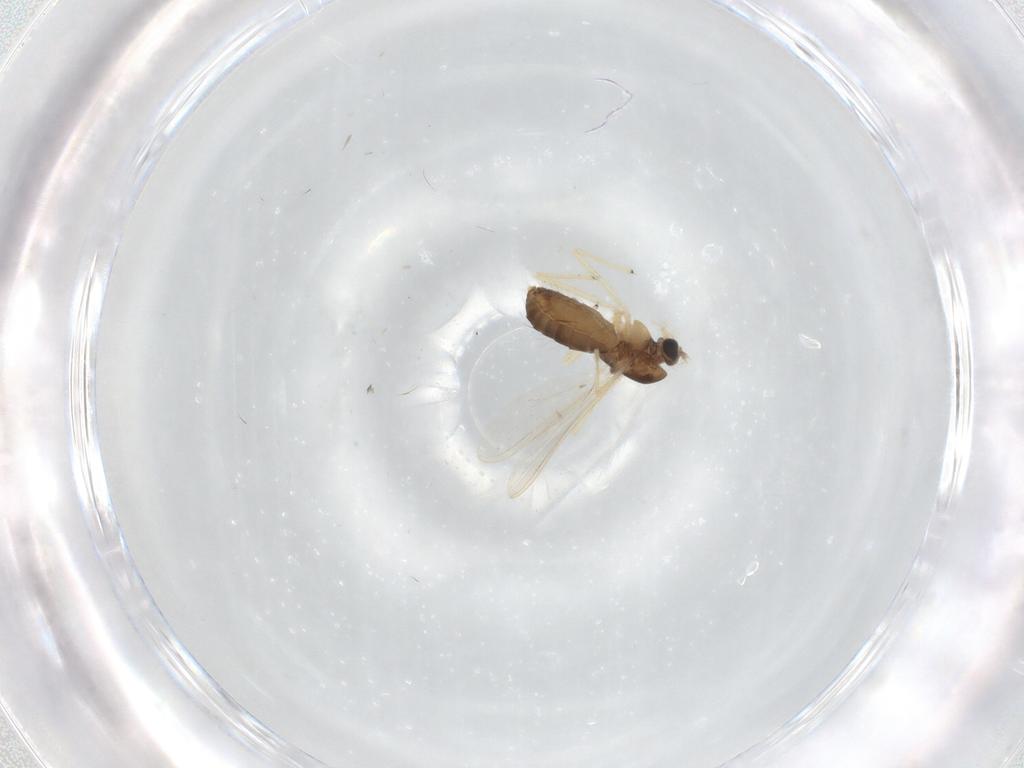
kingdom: Animalia
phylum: Arthropoda
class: Insecta
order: Diptera
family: Chironomidae
